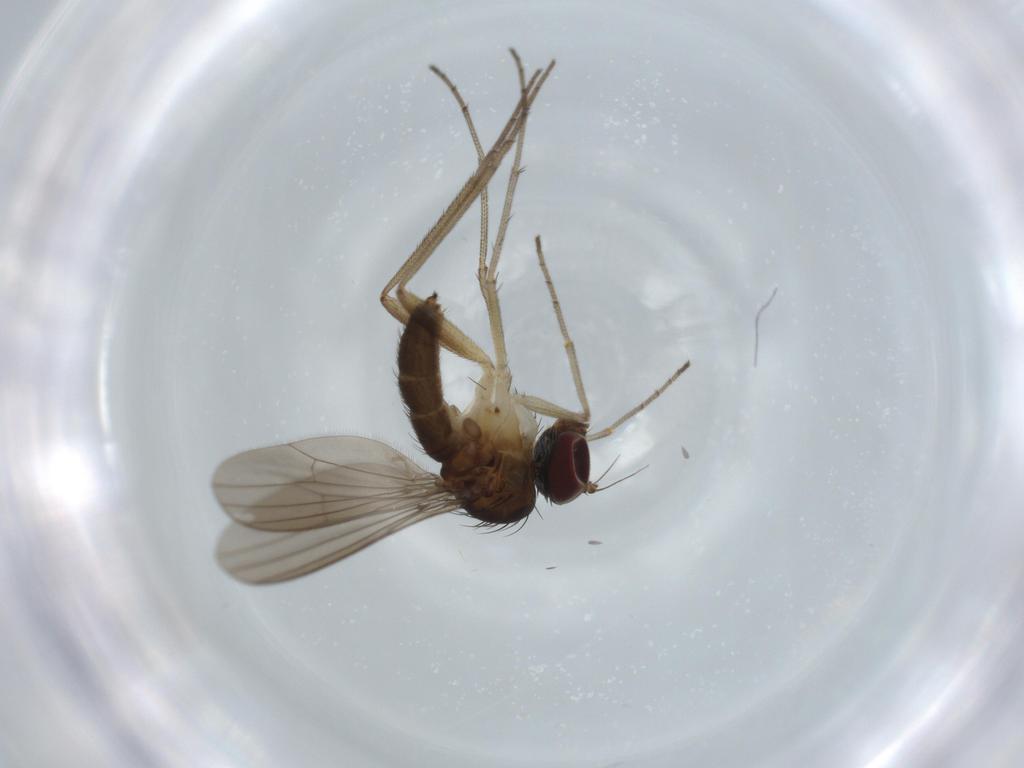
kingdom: Animalia
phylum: Arthropoda
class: Insecta
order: Diptera
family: Dolichopodidae
